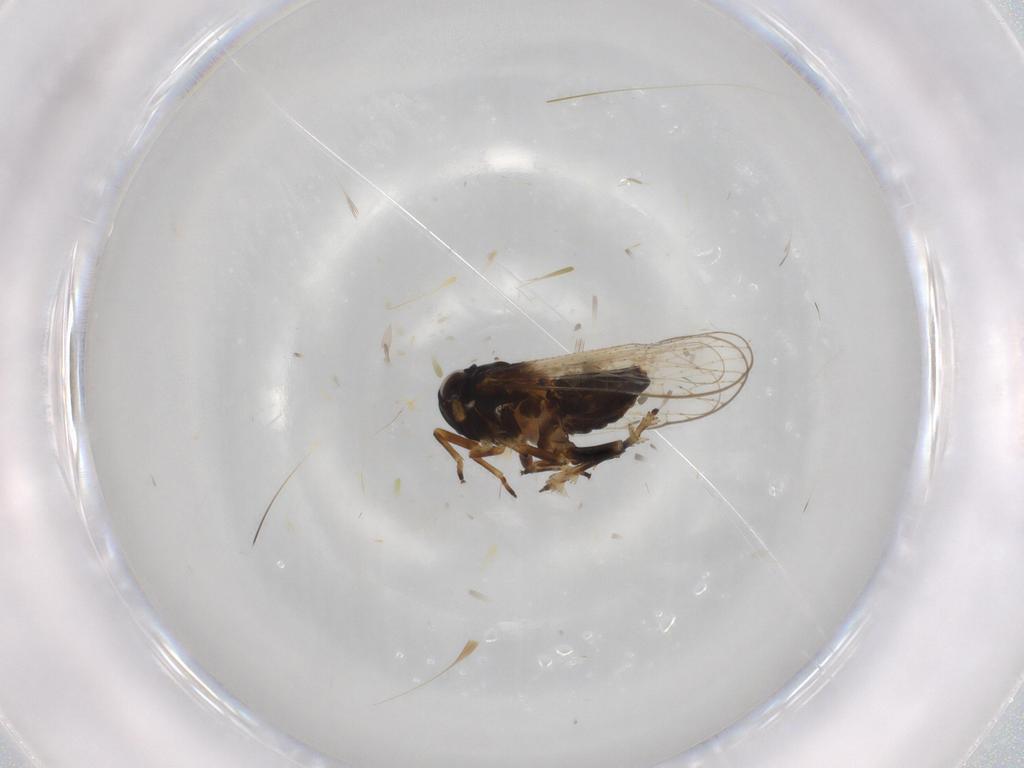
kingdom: Animalia
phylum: Arthropoda
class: Insecta
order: Hemiptera
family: Delphacidae
